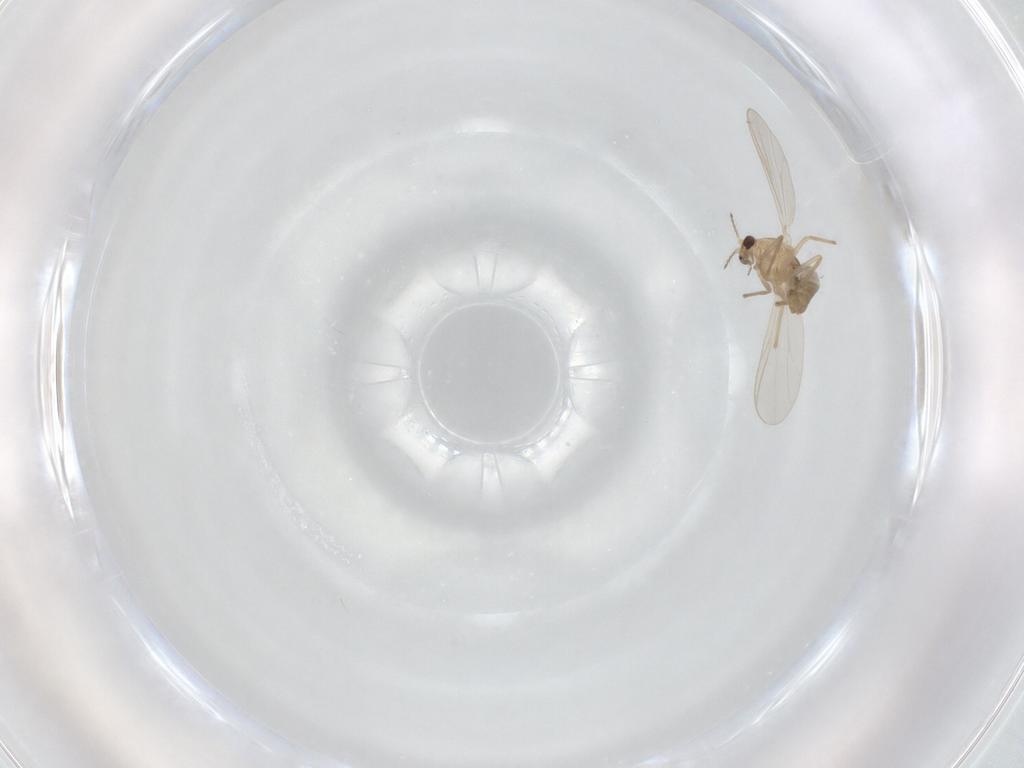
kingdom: Animalia
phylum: Arthropoda
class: Insecta
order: Diptera
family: Chironomidae
